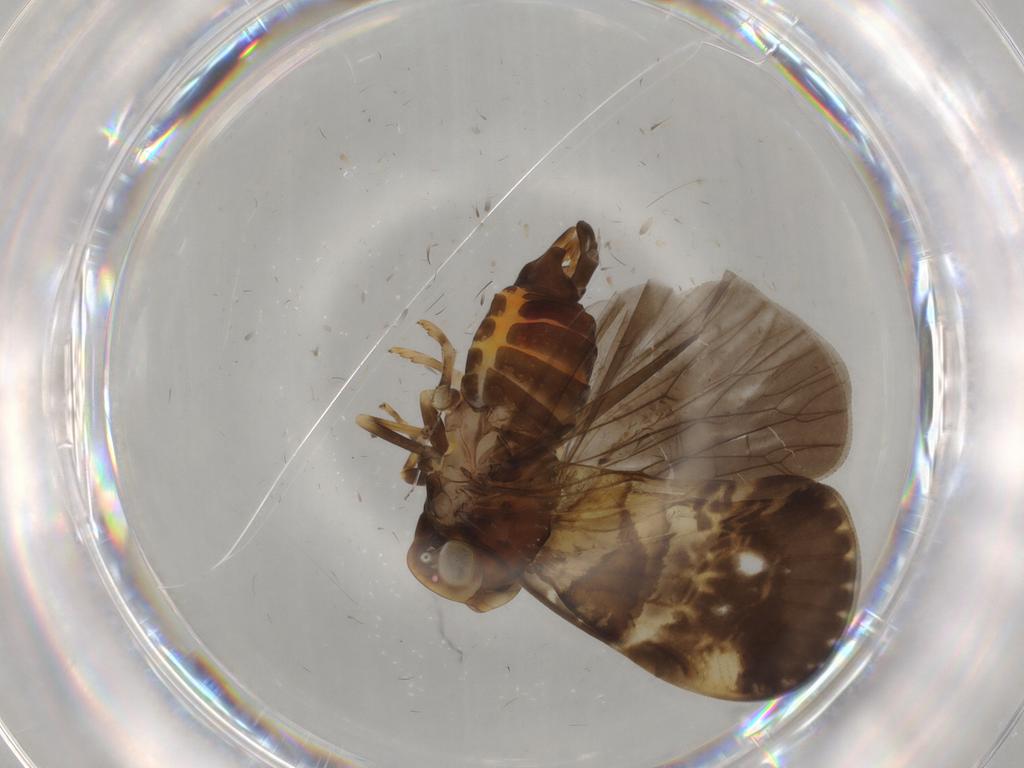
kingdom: Animalia
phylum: Arthropoda
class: Insecta
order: Hemiptera
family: Cixiidae
